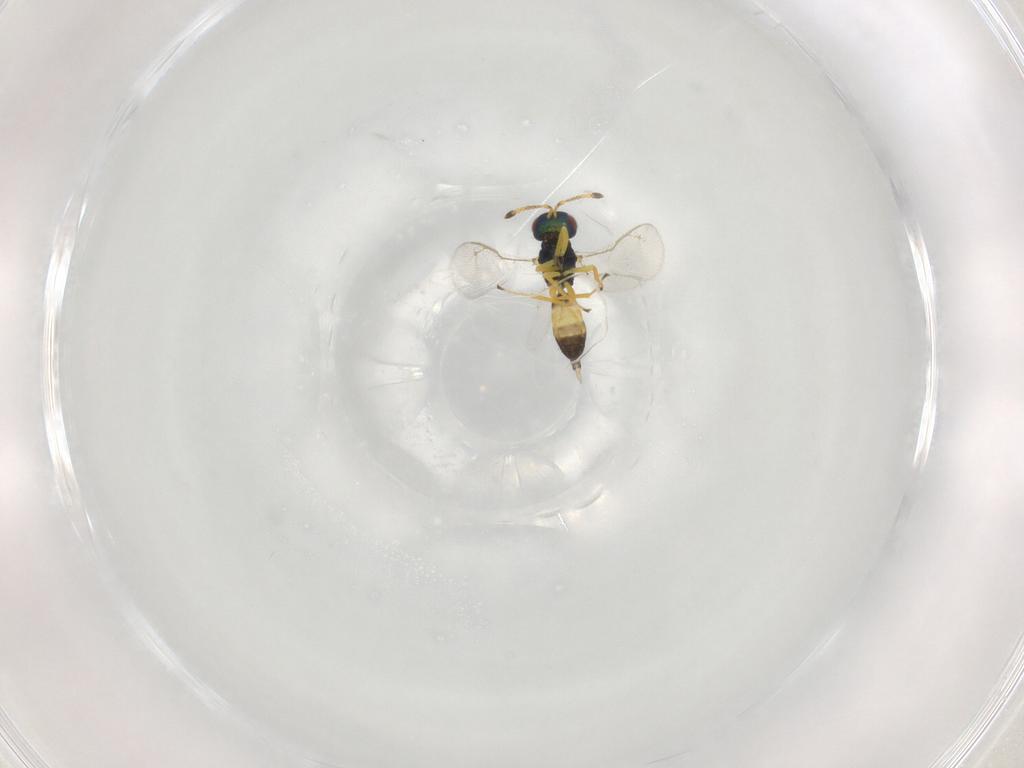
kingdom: Animalia
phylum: Arthropoda
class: Insecta
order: Hymenoptera
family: Pteromalidae
